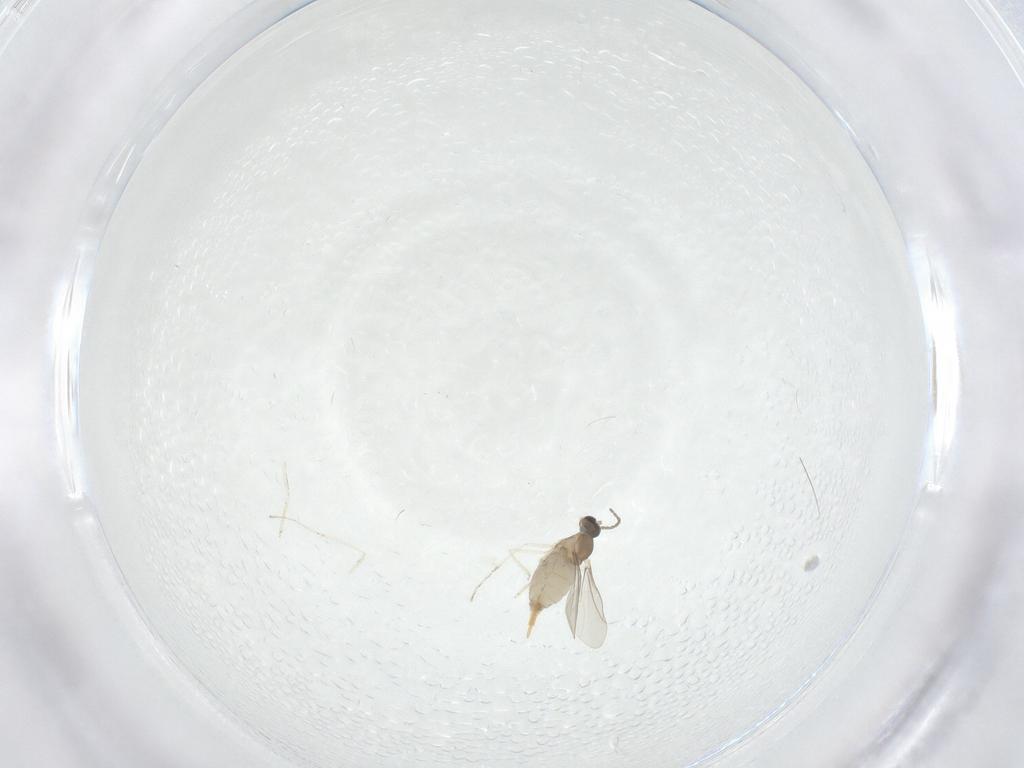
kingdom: Animalia
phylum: Arthropoda
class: Insecta
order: Diptera
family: Cecidomyiidae
